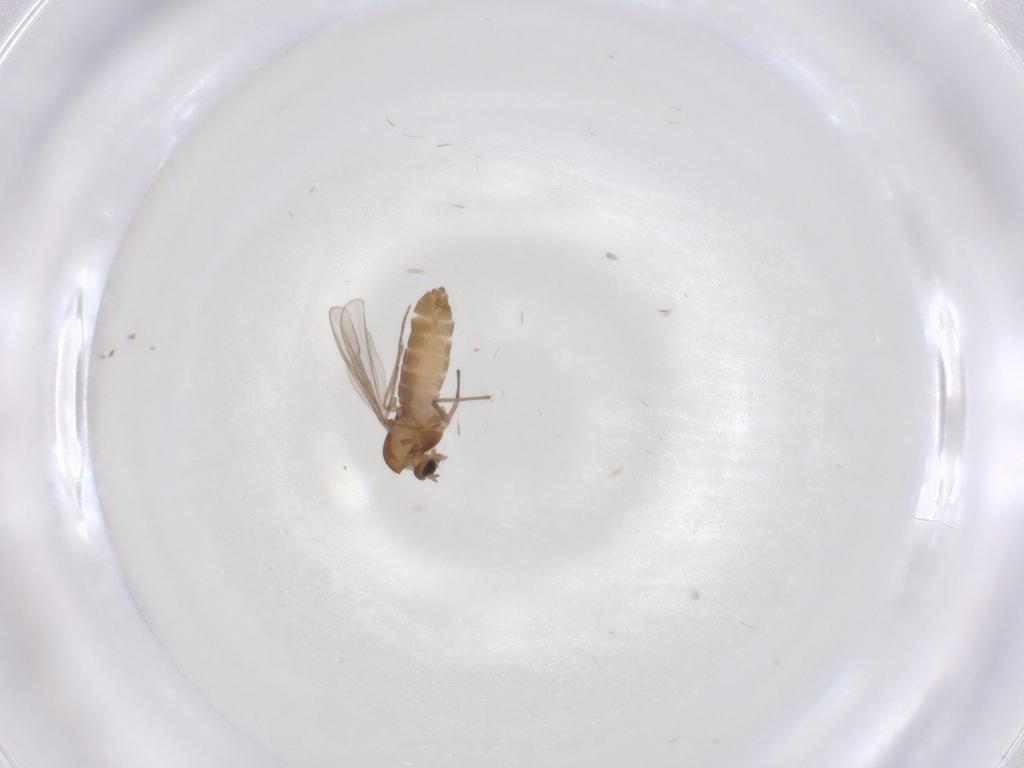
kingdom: Animalia
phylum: Arthropoda
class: Insecta
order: Diptera
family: Chironomidae
